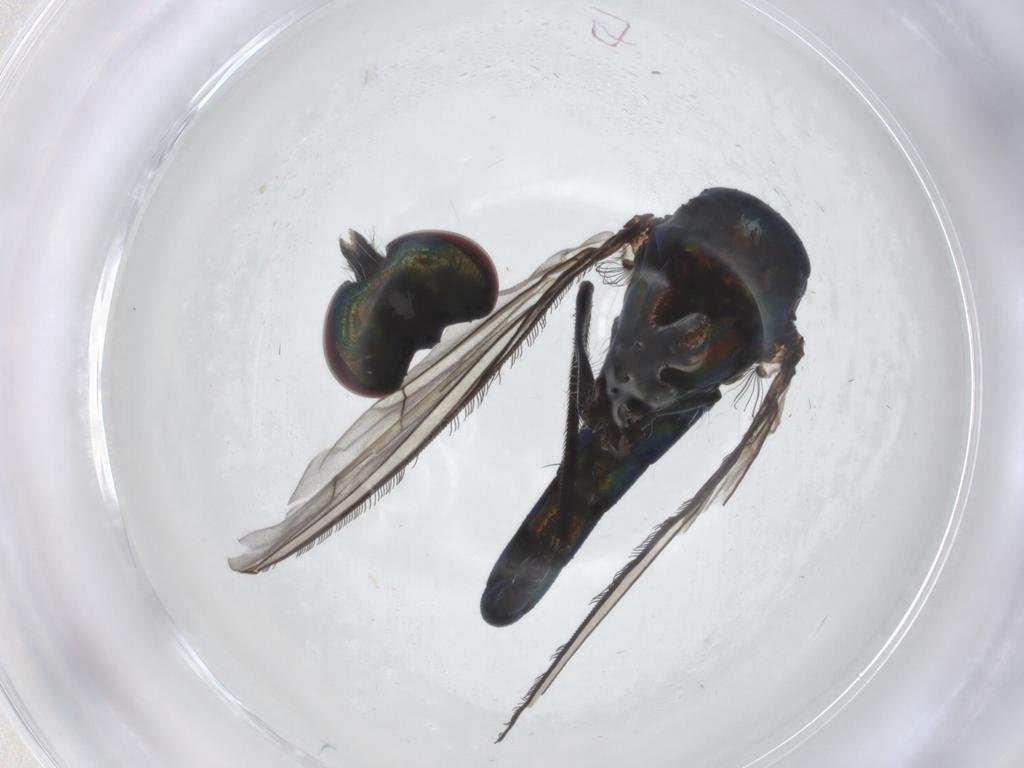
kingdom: Animalia
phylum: Arthropoda
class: Insecta
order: Diptera
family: Dolichopodidae
